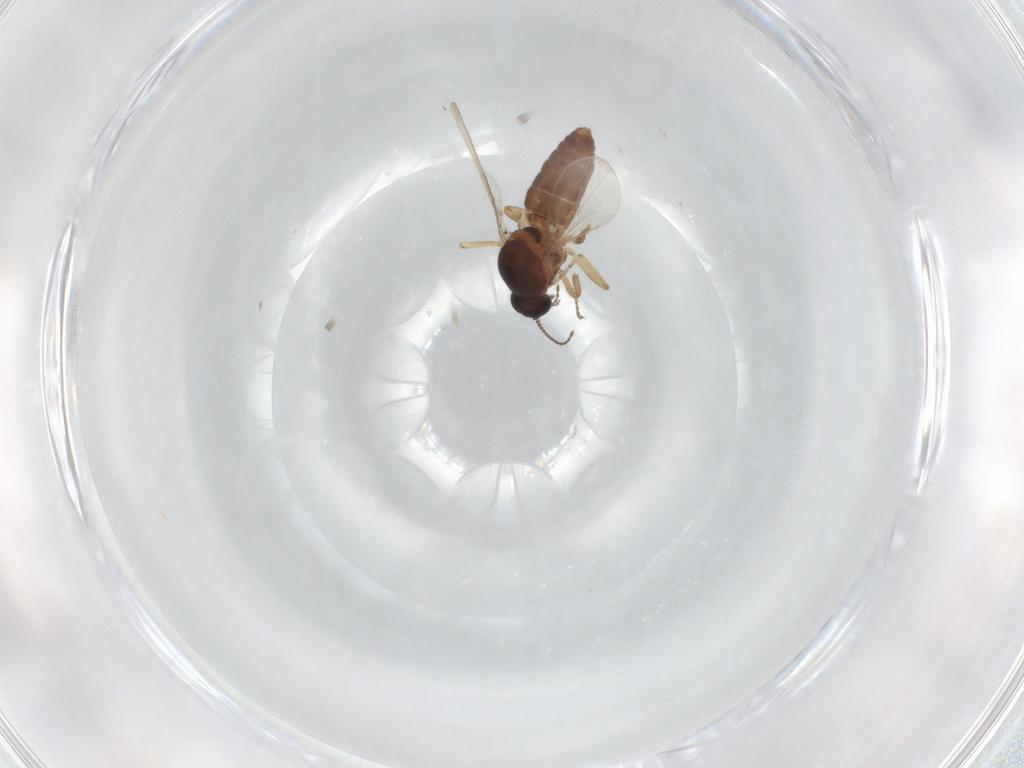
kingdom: Animalia
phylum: Arthropoda
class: Insecta
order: Diptera
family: Ceratopogonidae
